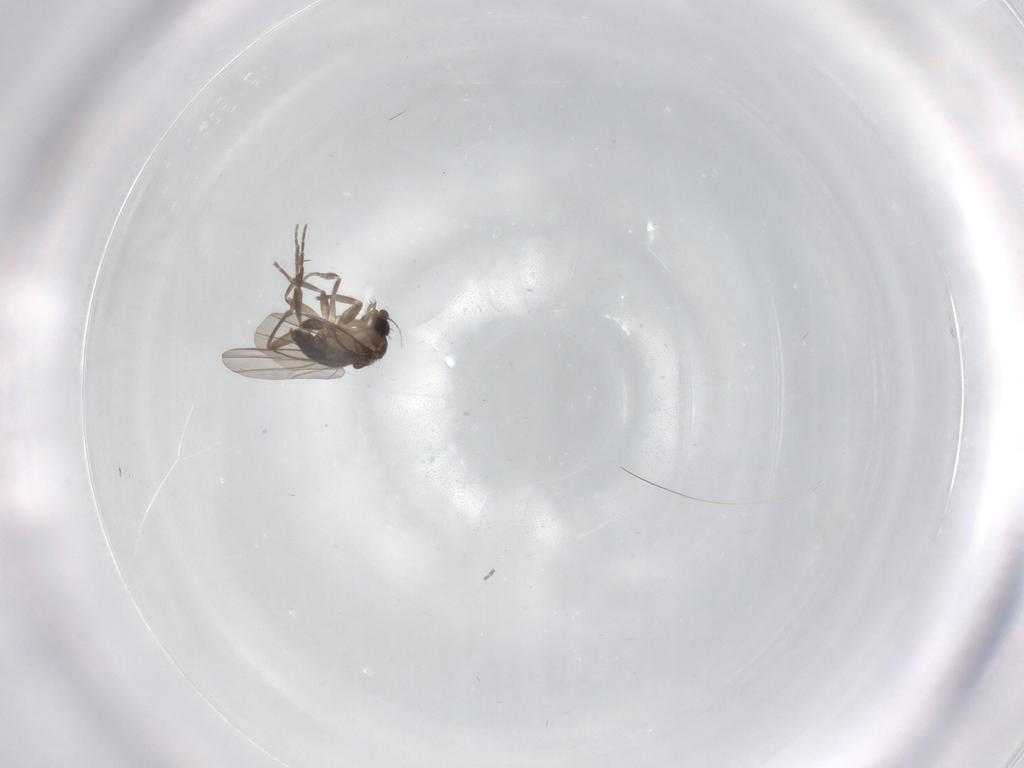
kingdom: Animalia
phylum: Arthropoda
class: Insecta
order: Diptera
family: Phoridae
